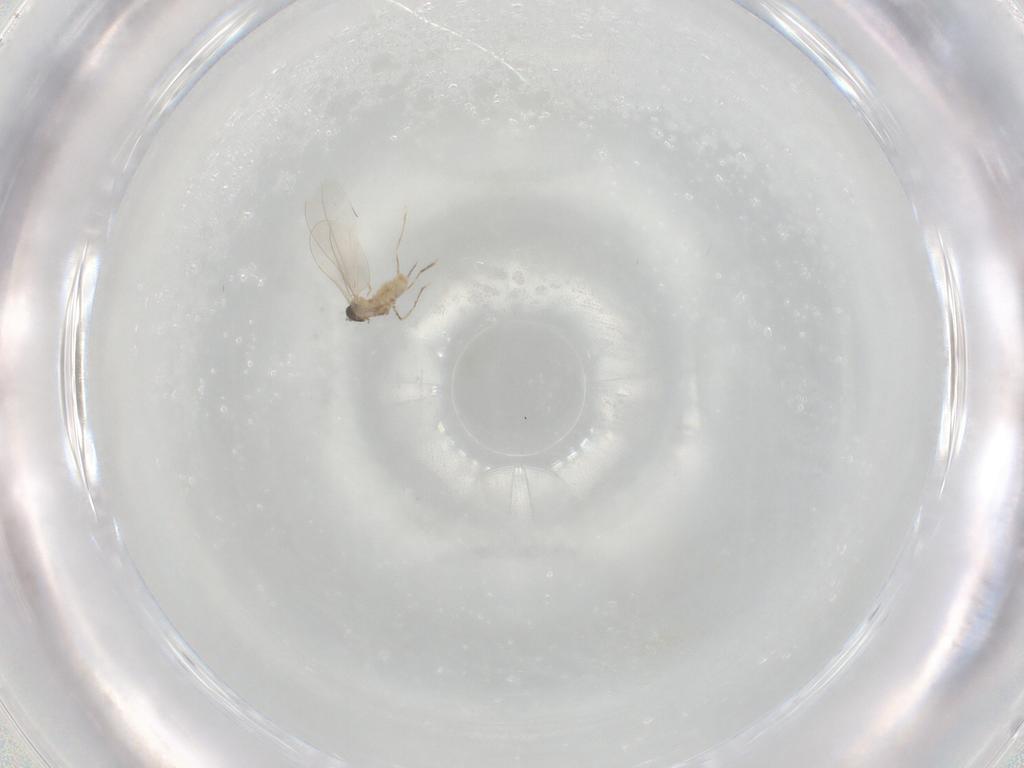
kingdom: Animalia
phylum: Arthropoda
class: Insecta
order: Diptera
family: Cecidomyiidae
